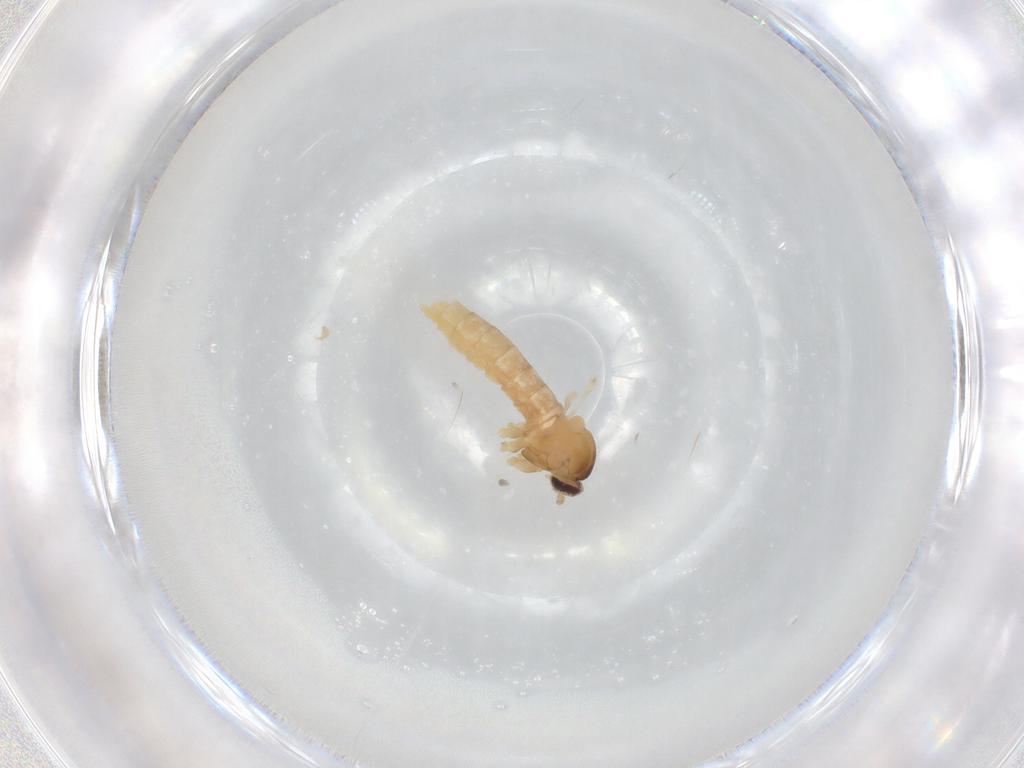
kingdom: Animalia
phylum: Arthropoda
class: Insecta
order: Diptera
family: Cecidomyiidae
